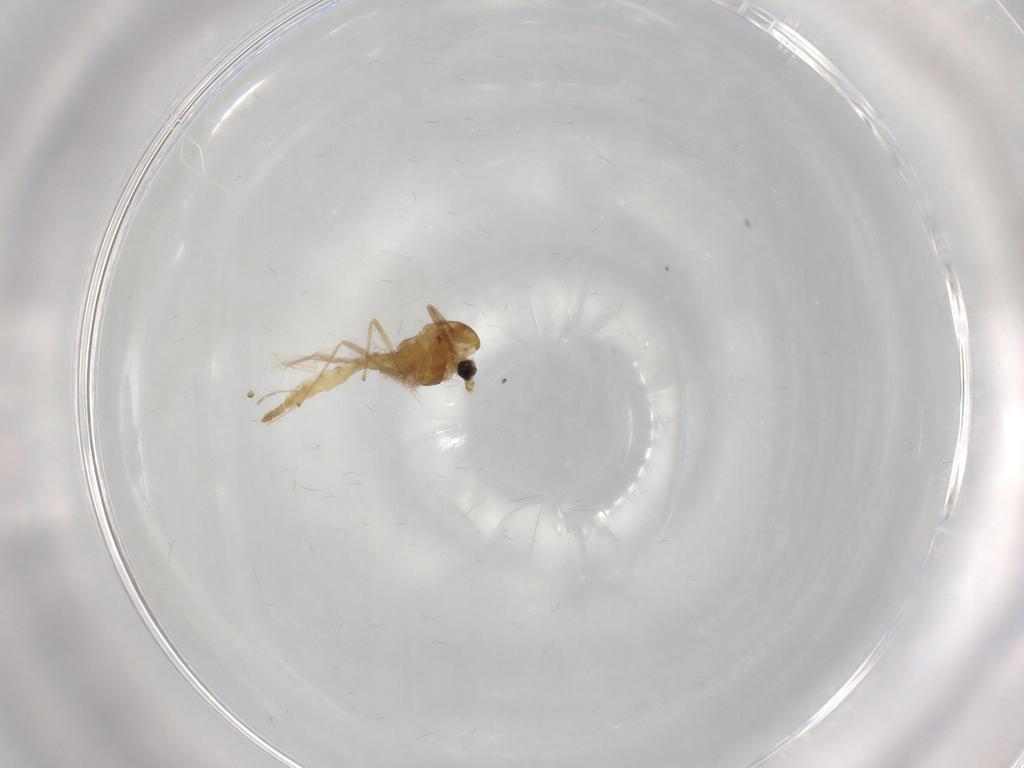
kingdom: Animalia
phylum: Arthropoda
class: Insecta
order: Diptera
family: Chironomidae
